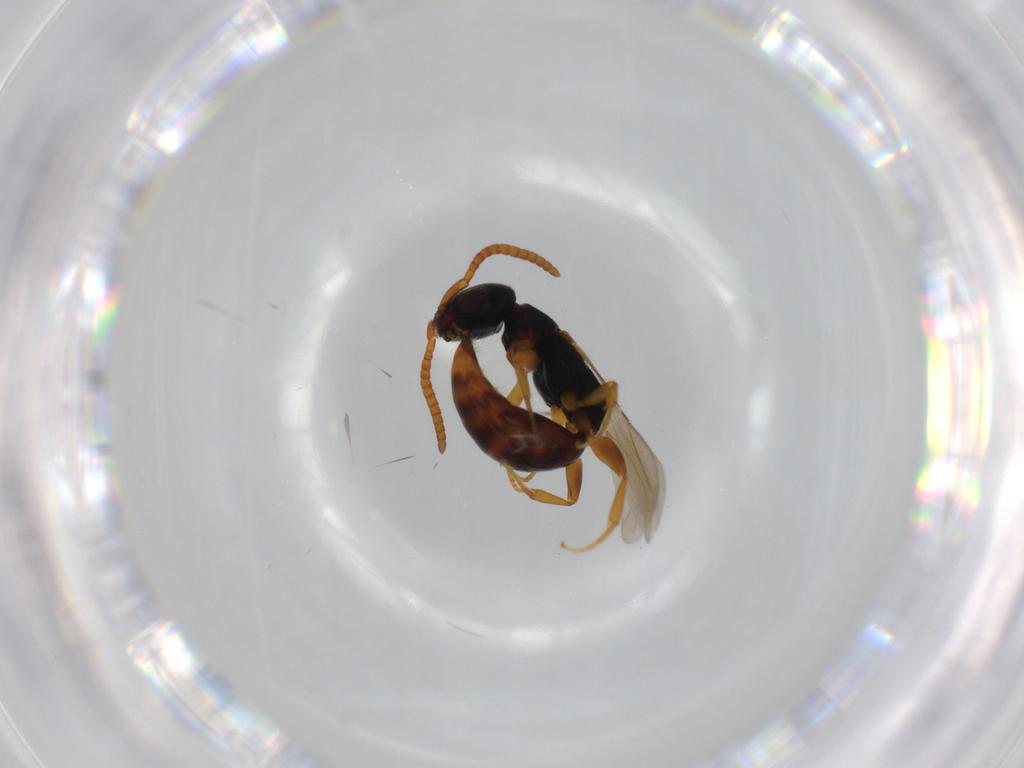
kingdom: Animalia
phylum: Arthropoda
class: Insecta
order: Hymenoptera
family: Bethylidae
